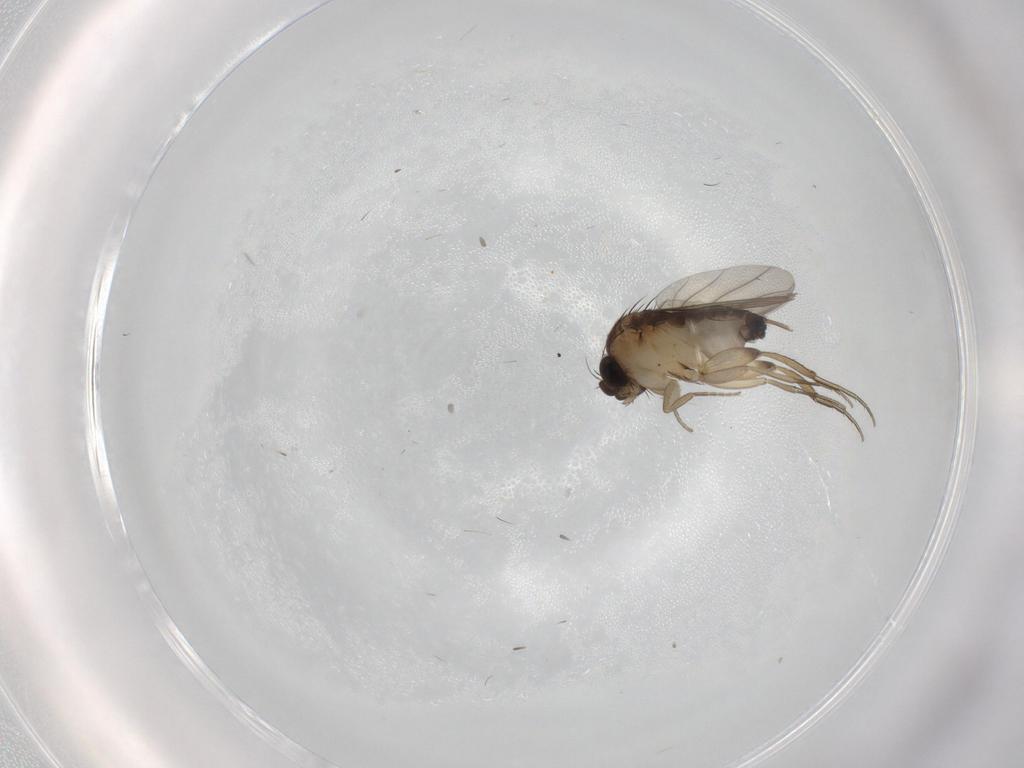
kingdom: Animalia
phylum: Arthropoda
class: Insecta
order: Diptera
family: Phoridae
